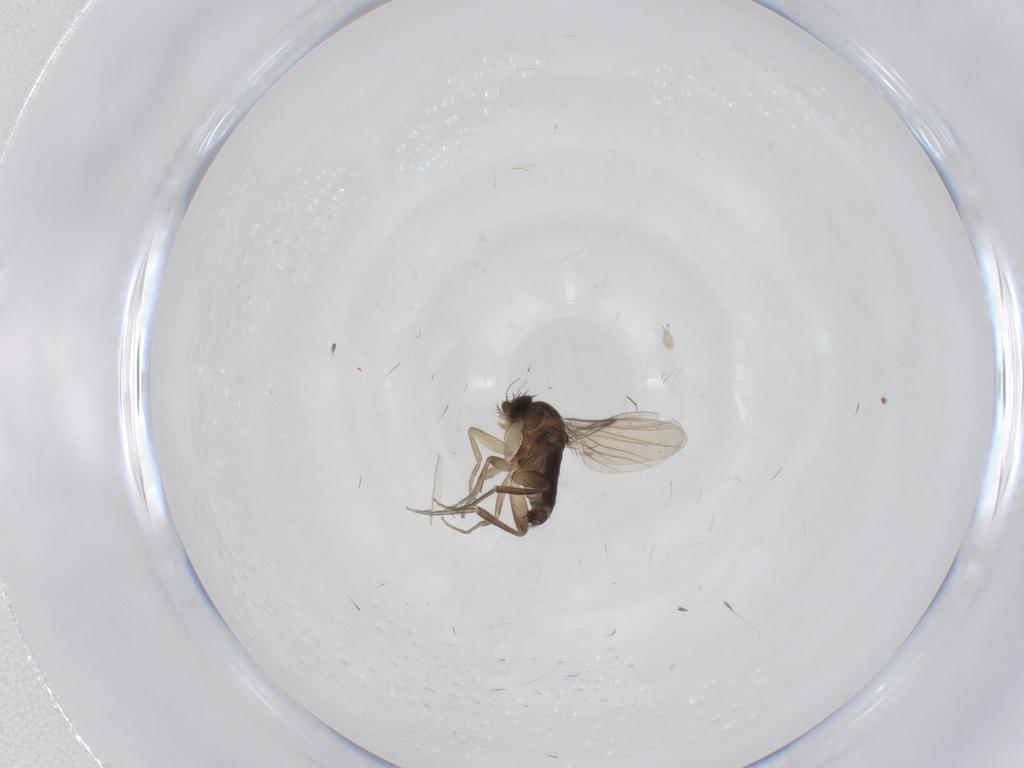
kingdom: Animalia
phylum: Arthropoda
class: Insecta
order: Diptera
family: Phoridae
